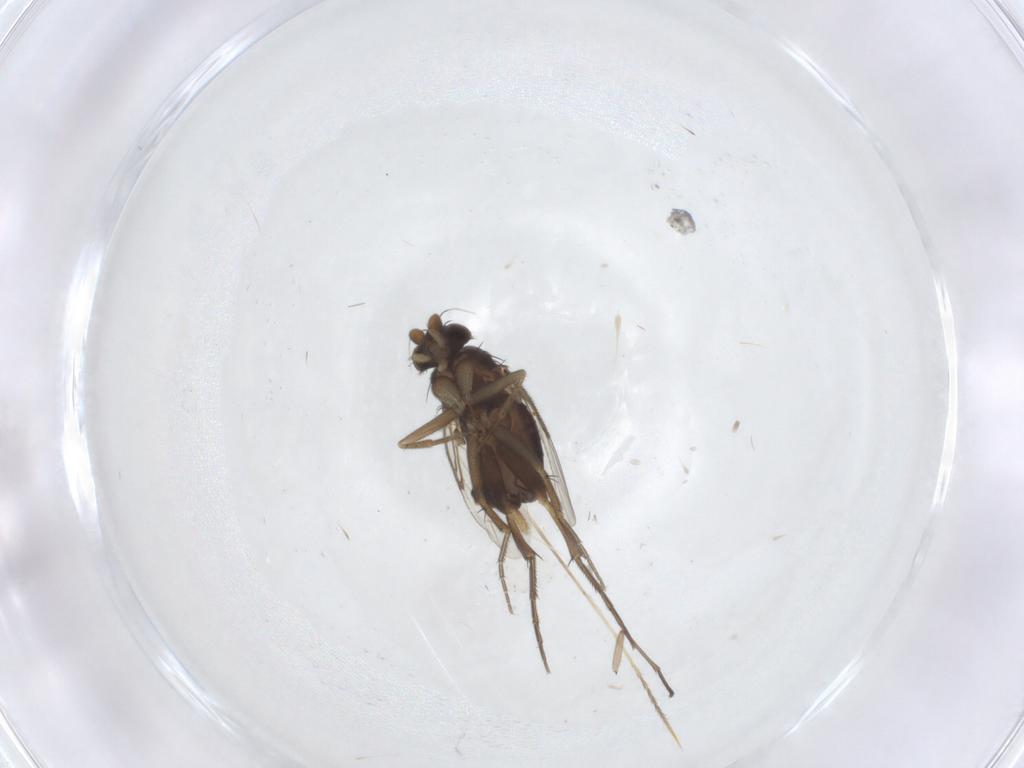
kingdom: Animalia
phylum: Arthropoda
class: Insecta
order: Diptera
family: Phoridae
